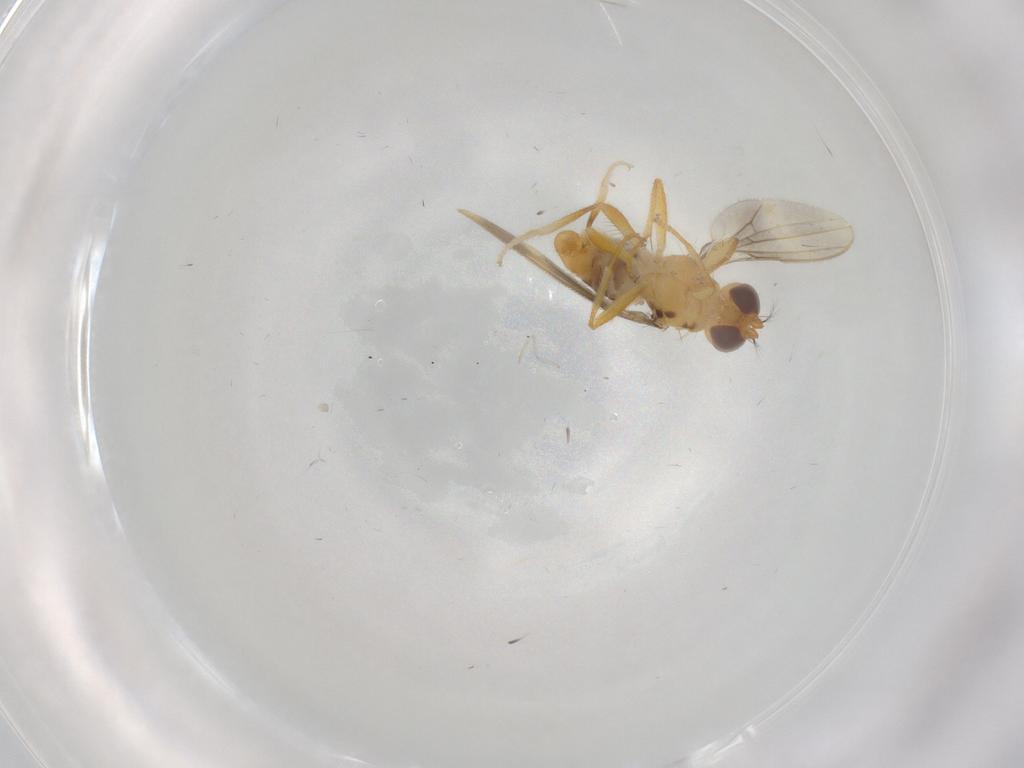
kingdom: Animalia
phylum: Arthropoda
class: Insecta
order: Diptera
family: Periscelididae
